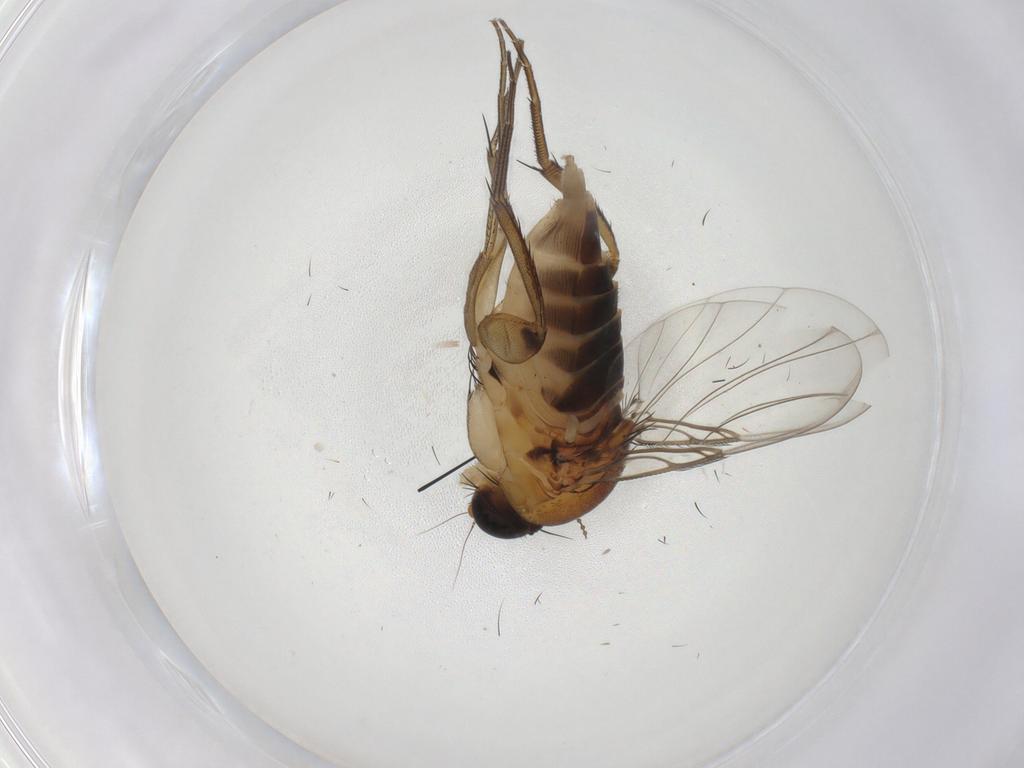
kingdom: Animalia
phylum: Arthropoda
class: Insecta
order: Diptera
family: Phoridae
